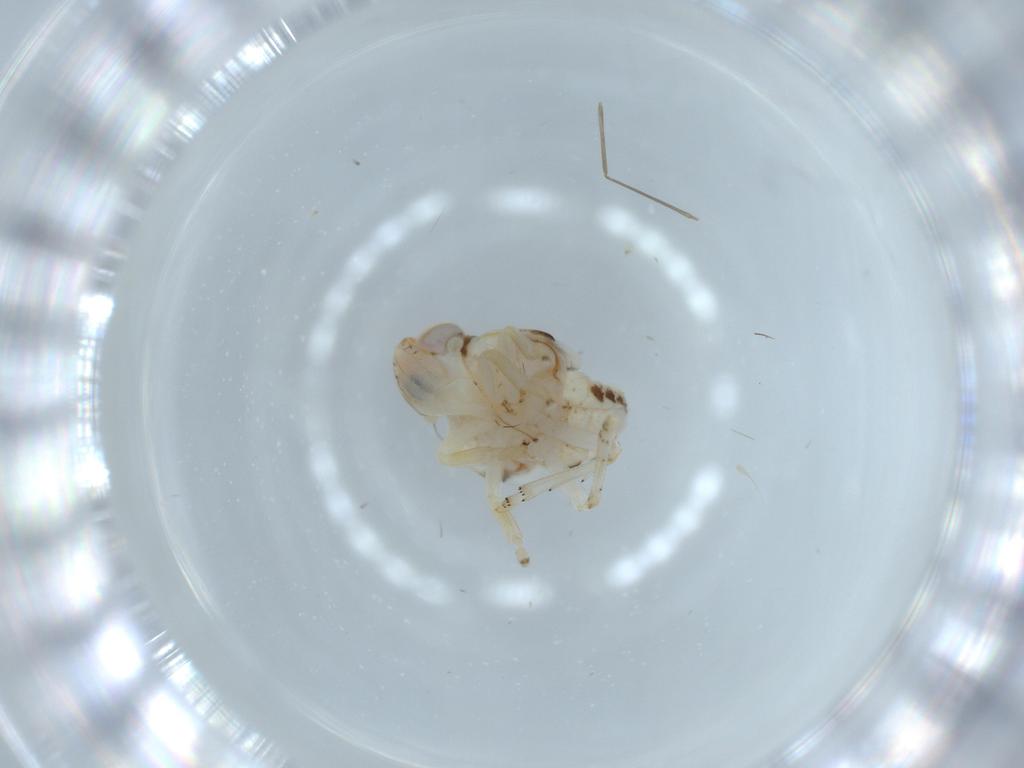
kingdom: Animalia
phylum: Arthropoda
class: Insecta
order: Hemiptera
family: Nogodinidae
